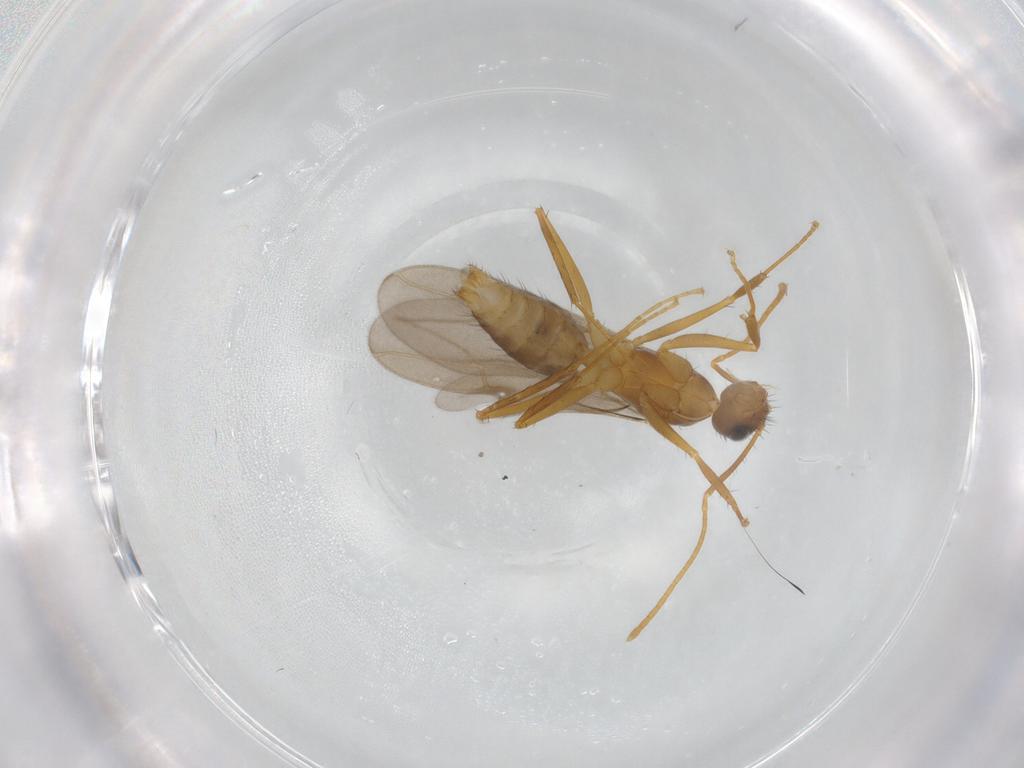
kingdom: Animalia
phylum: Arthropoda
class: Insecta
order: Hymenoptera
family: Formicidae
